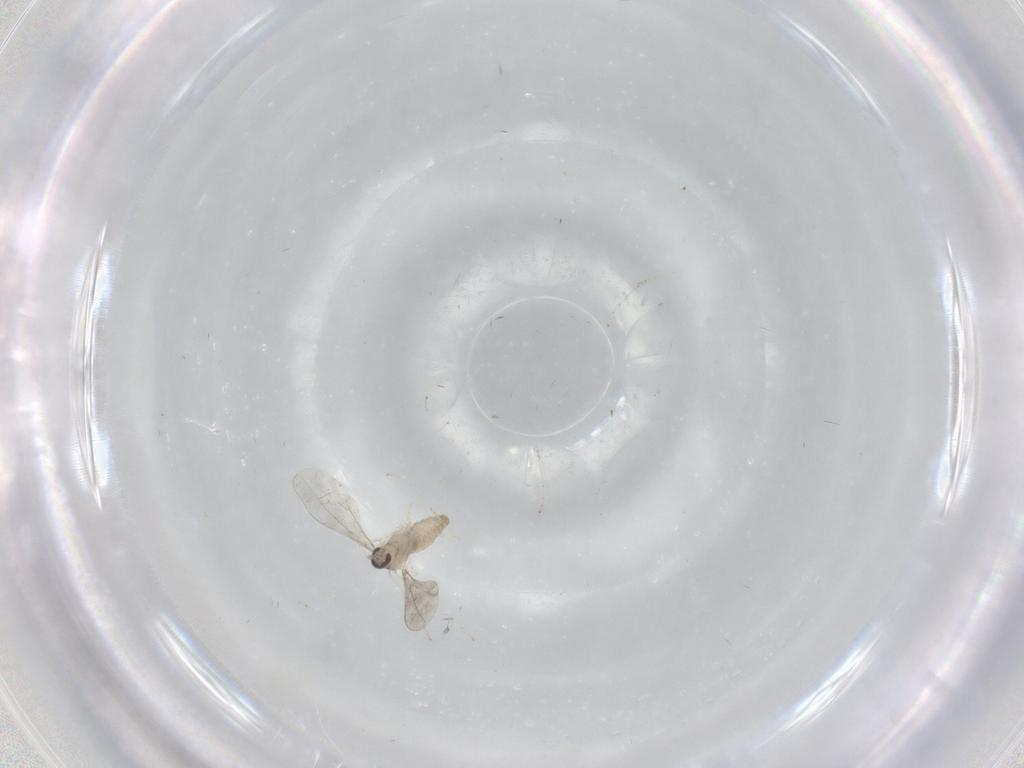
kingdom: Animalia
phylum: Arthropoda
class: Insecta
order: Diptera
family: Cecidomyiidae
